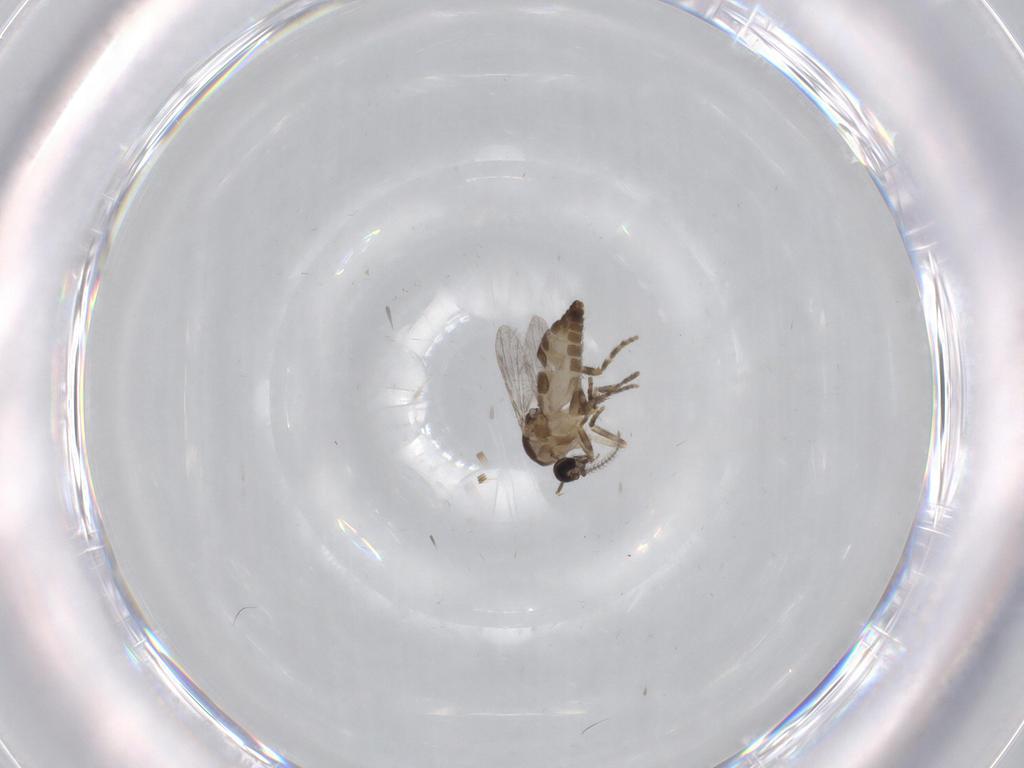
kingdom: Animalia
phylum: Arthropoda
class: Insecta
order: Diptera
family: Ceratopogonidae
